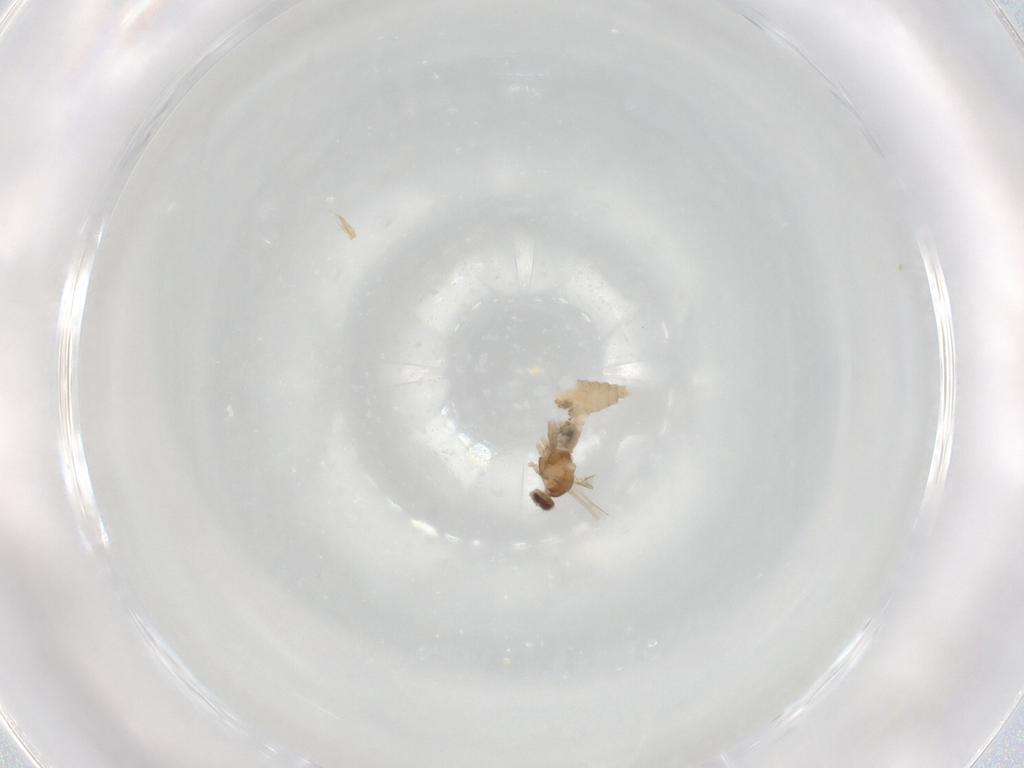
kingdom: Animalia
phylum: Arthropoda
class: Insecta
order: Diptera
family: Cecidomyiidae
